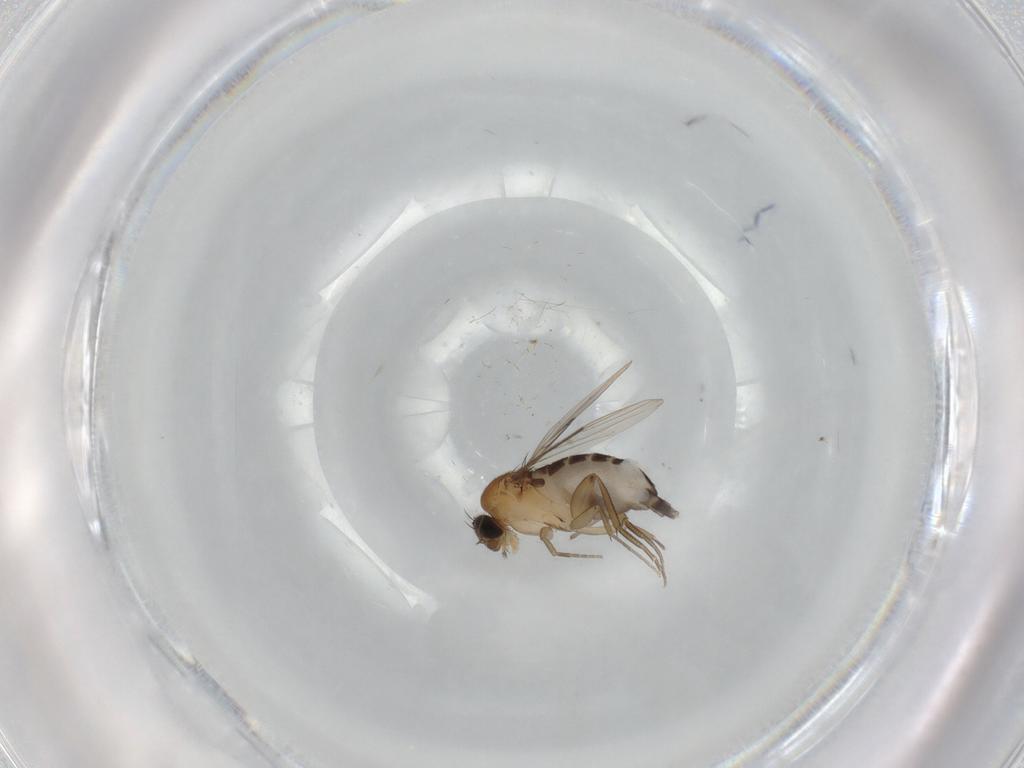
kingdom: Animalia
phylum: Arthropoda
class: Insecta
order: Diptera
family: Phoridae
